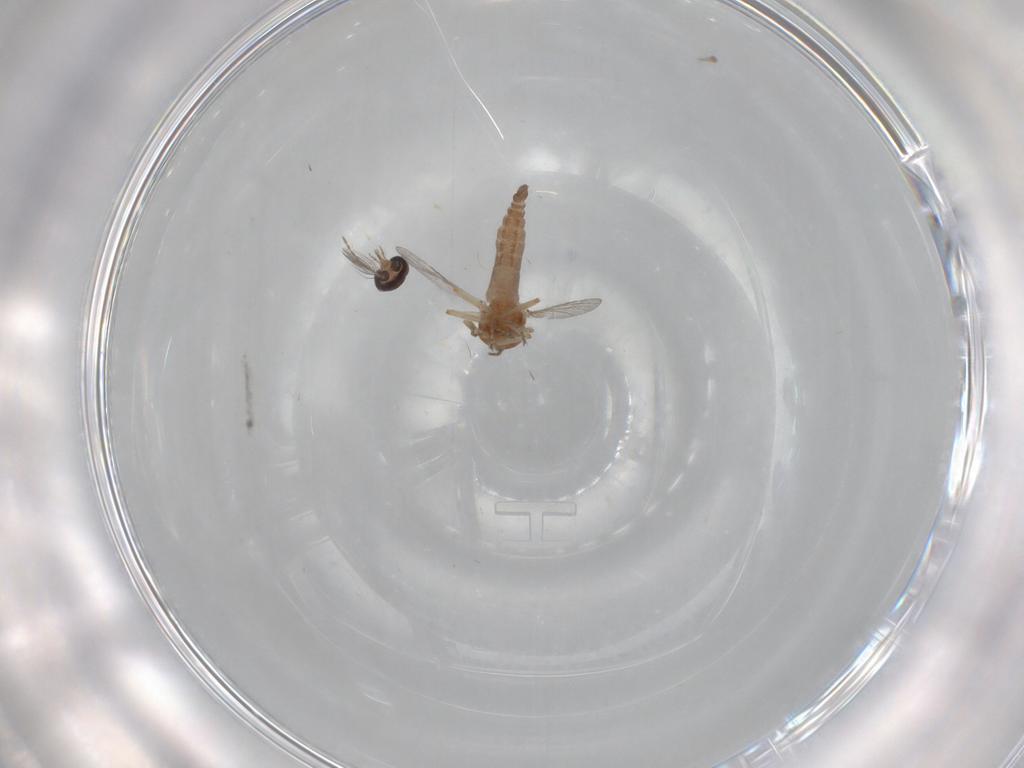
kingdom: Animalia
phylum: Arthropoda
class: Insecta
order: Diptera
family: Ceratopogonidae
